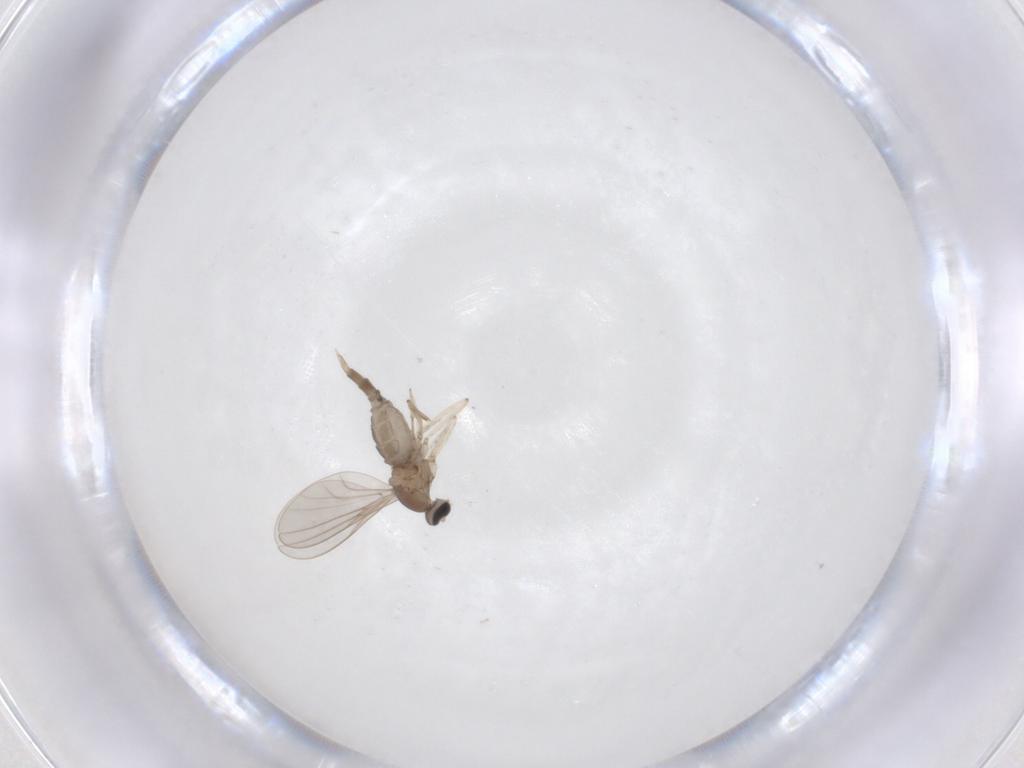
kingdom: Animalia
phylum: Arthropoda
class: Insecta
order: Diptera
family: Cecidomyiidae
